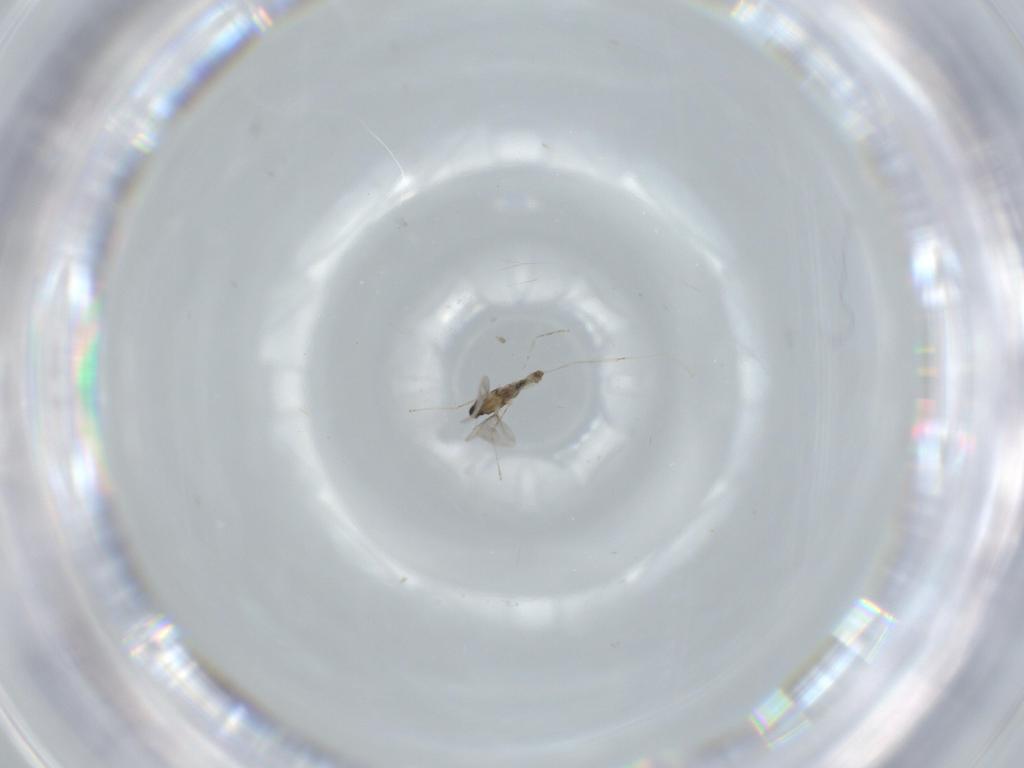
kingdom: Animalia
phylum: Arthropoda
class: Insecta
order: Diptera
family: Cecidomyiidae
